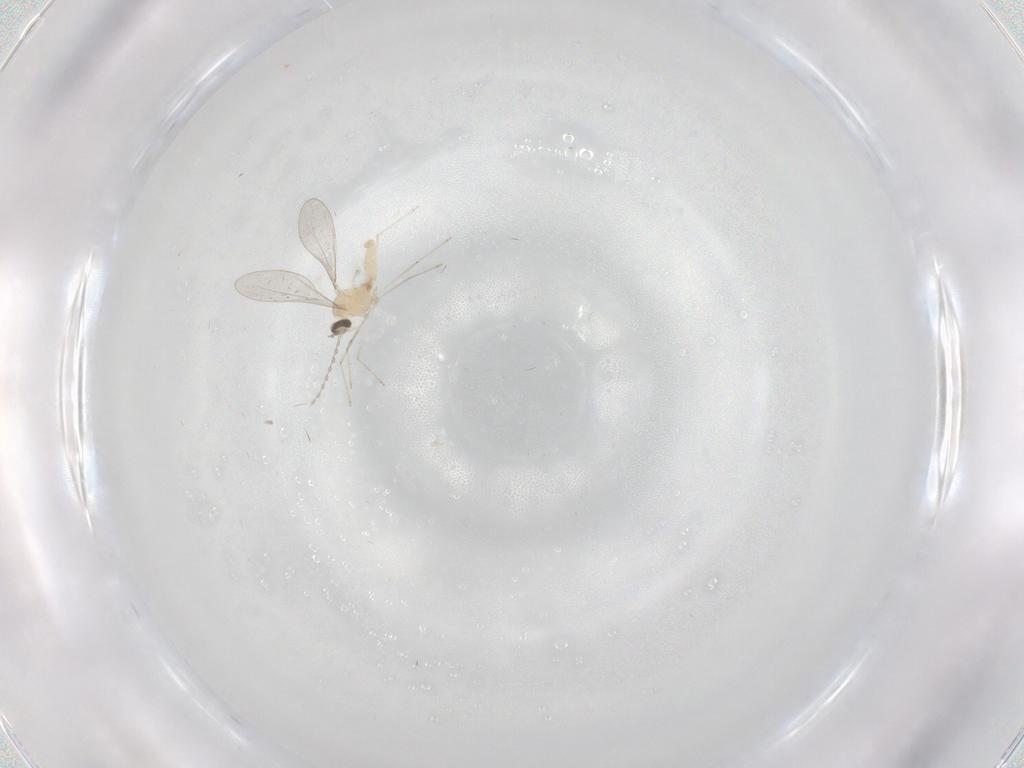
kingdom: Animalia
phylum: Arthropoda
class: Insecta
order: Diptera
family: Cecidomyiidae
